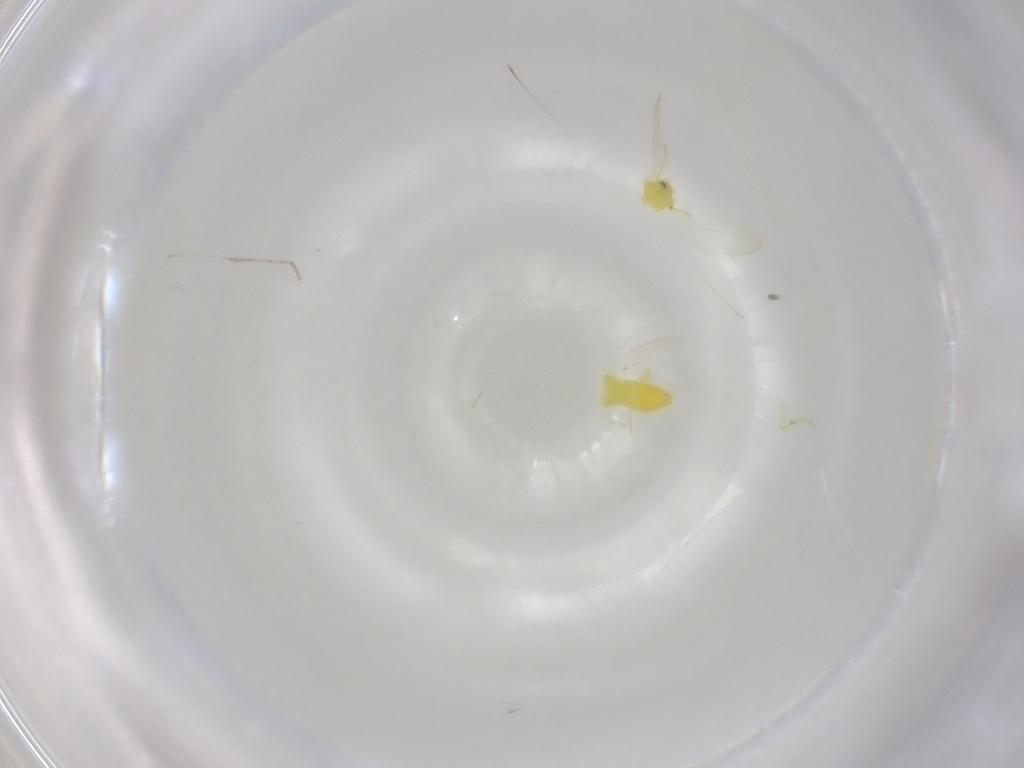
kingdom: Animalia
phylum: Arthropoda
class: Insecta
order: Hemiptera
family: Aleyrodidae
